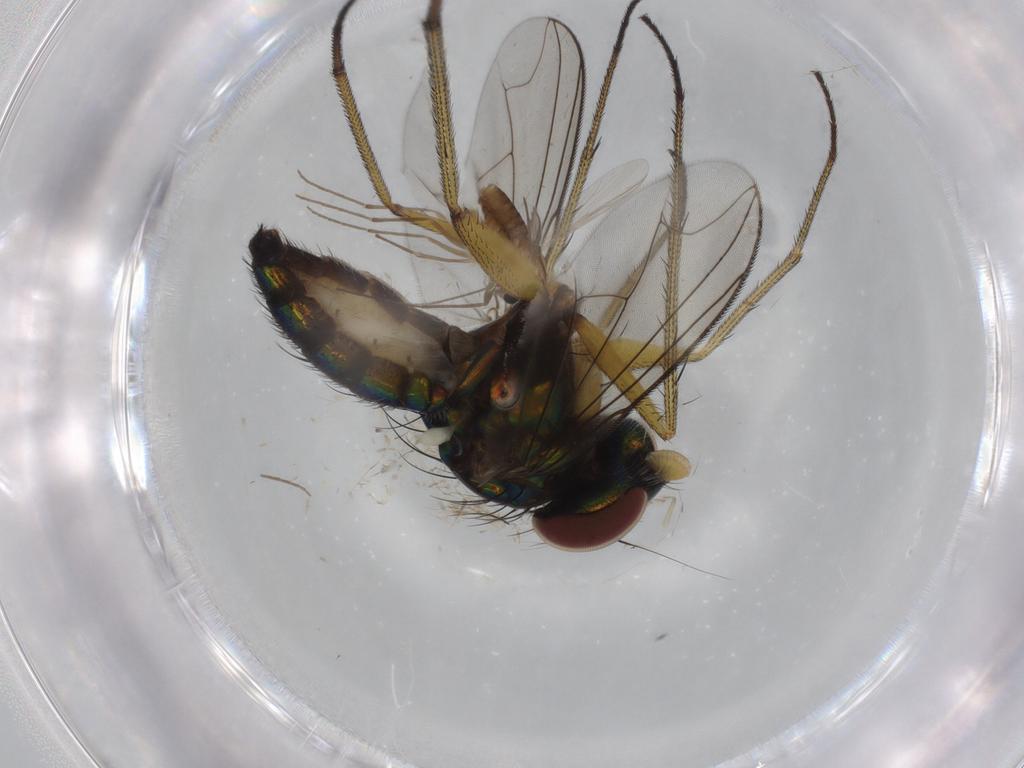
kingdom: Animalia
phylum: Arthropoda
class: Insecta
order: Diptera
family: Dolichopodidae
